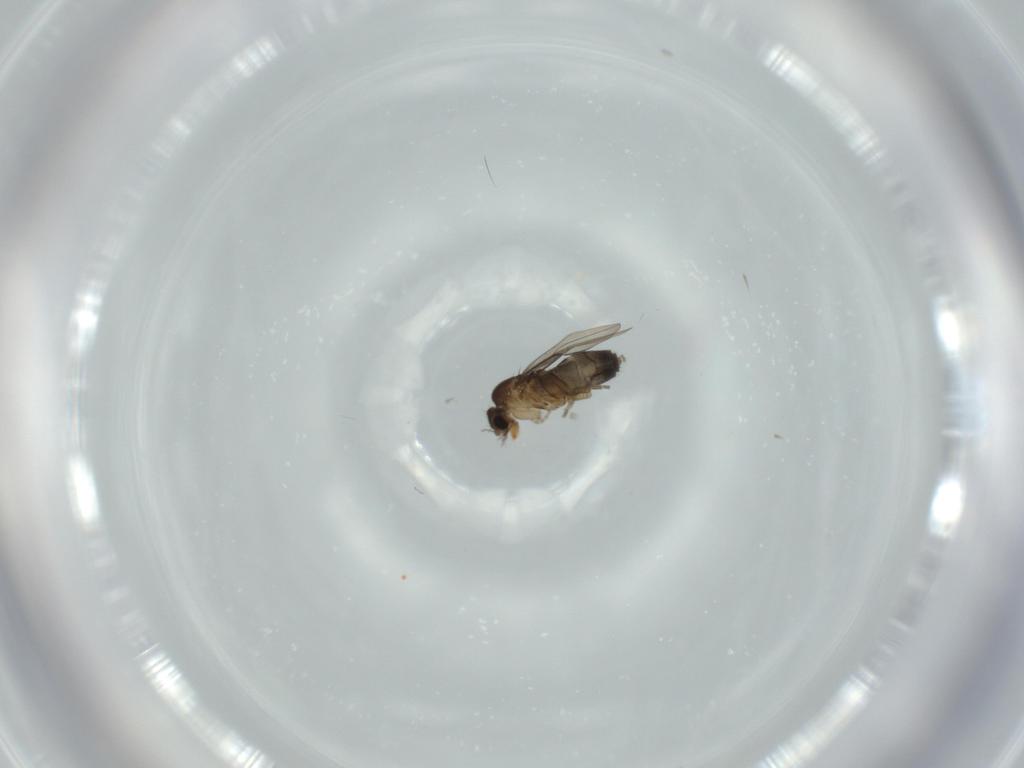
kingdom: Animalia
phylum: Arthropoda
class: Insecta
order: Diptera
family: Phoridae
